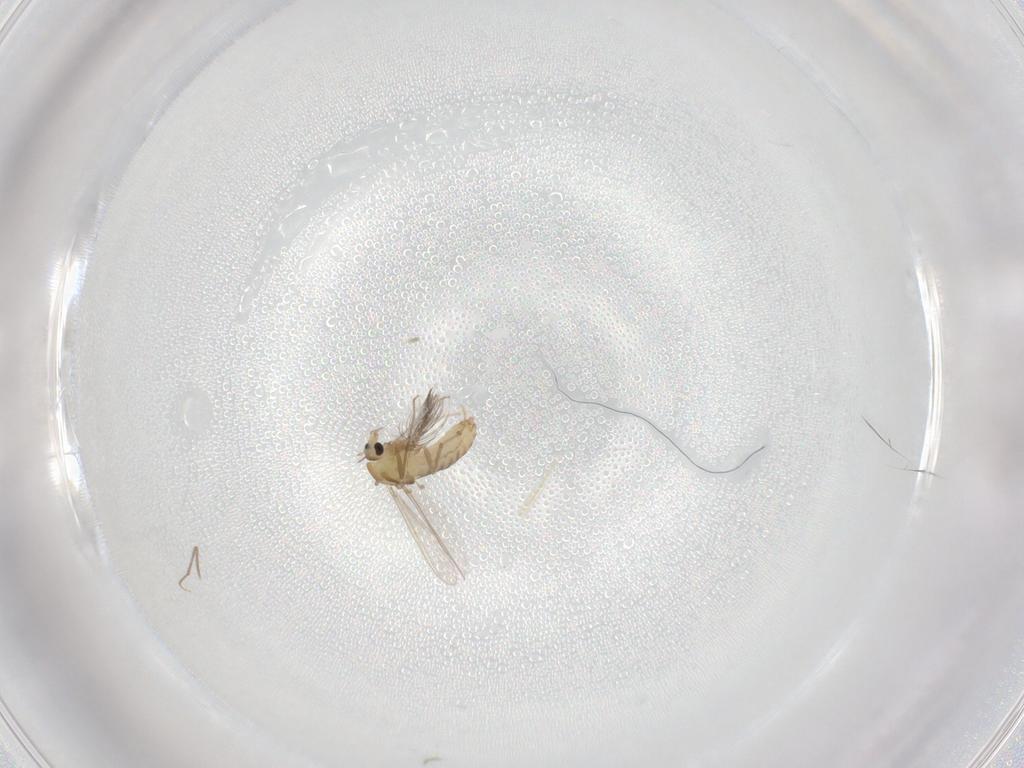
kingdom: Animalia
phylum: Arthropoda
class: Insecta
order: Diptera
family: Chironomidae
